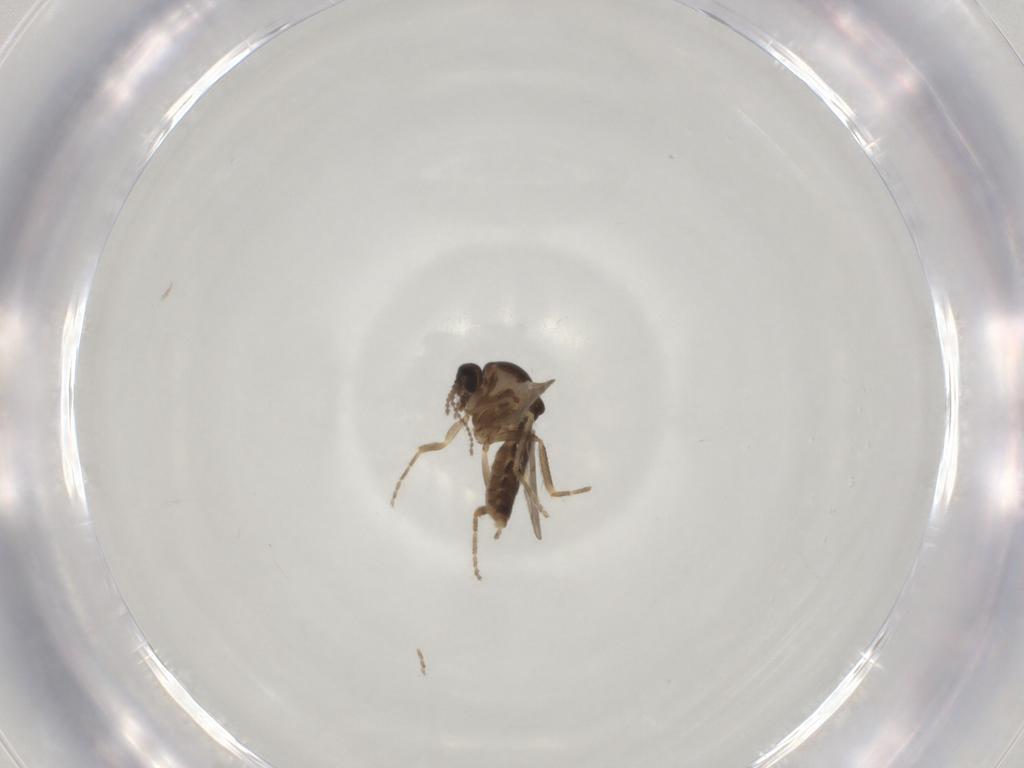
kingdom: Animalia
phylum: Arthropoda
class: Insecta
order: Diptera
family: Ceratopogonidae
